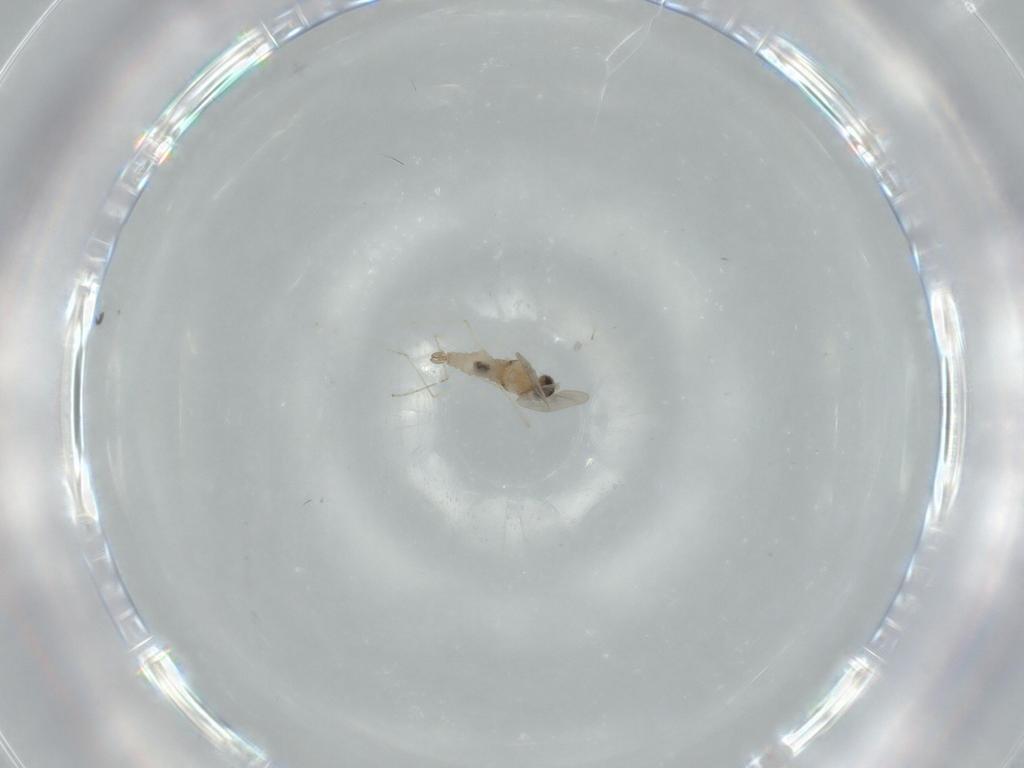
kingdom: Animalia
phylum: Arthropoda
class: Insecta
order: Diptera
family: Cecidomyiidae
